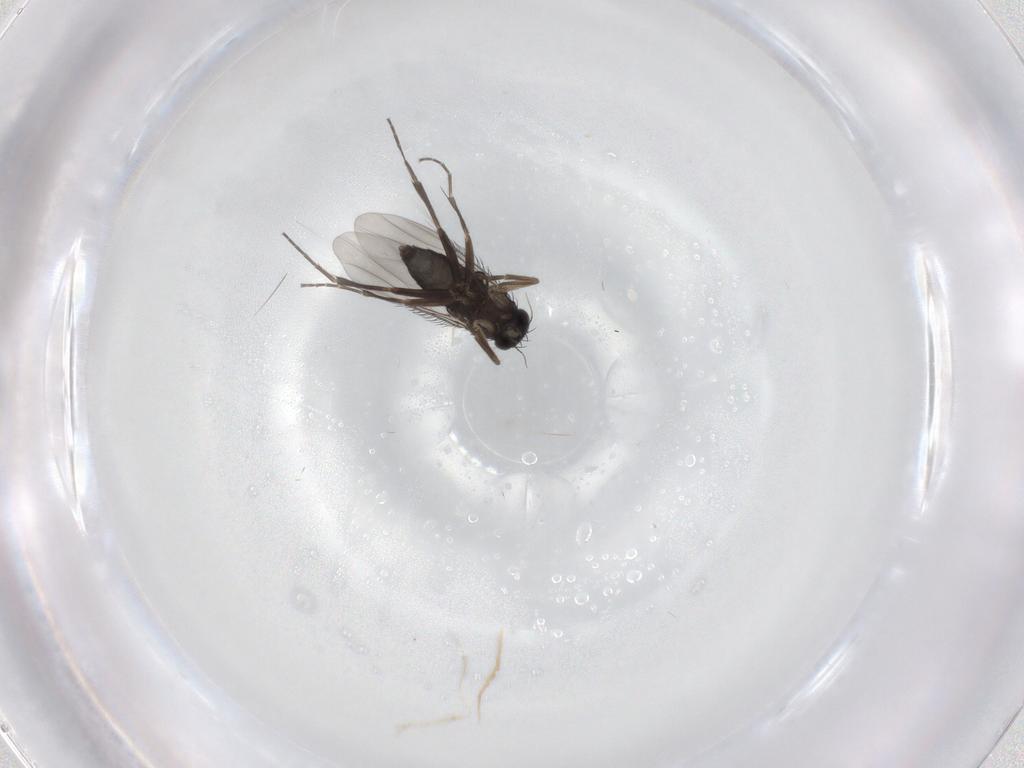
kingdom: Animalia
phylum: Arthropoda
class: Insecta
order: Diptera
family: Phoridae
